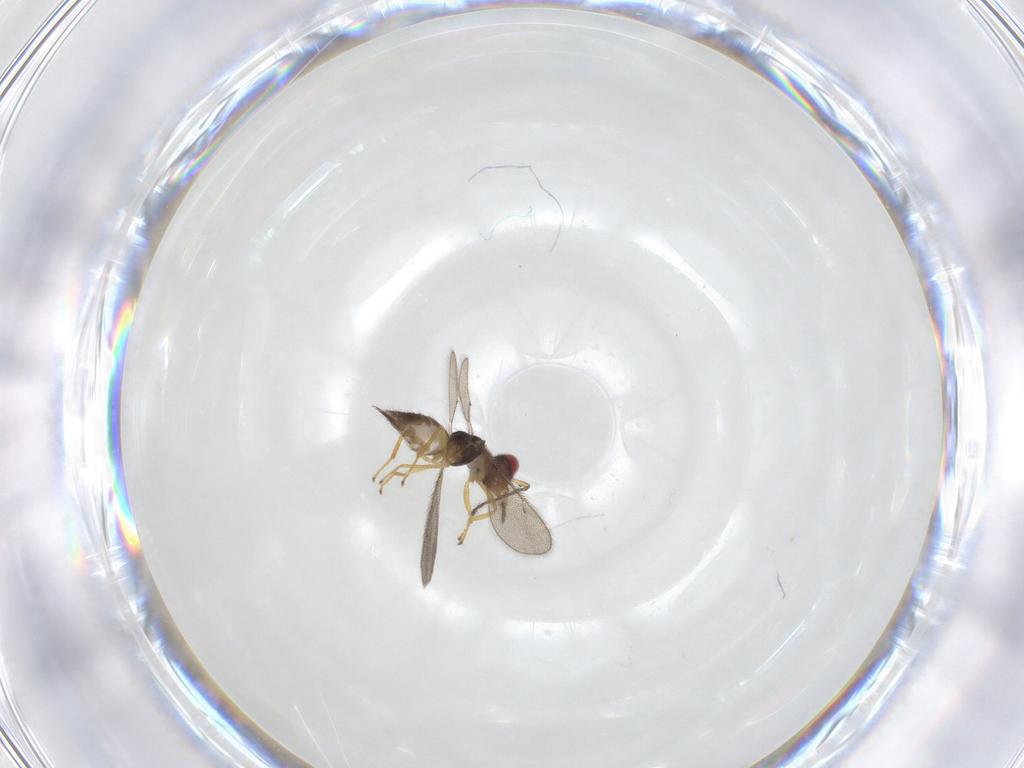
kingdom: Animalia
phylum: Arthropoda
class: Insecta
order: Hymenoptera
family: Formicidae
